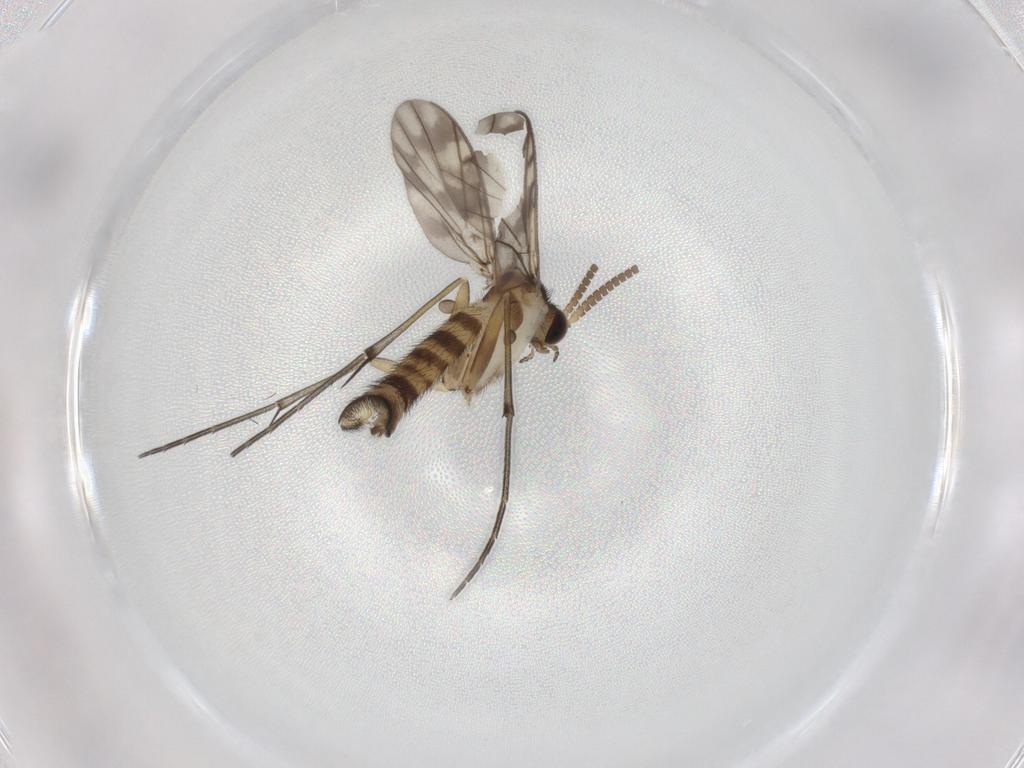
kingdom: Animalia
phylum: Arthropoda
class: Insecta
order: Diptera
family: Keroplatidae
